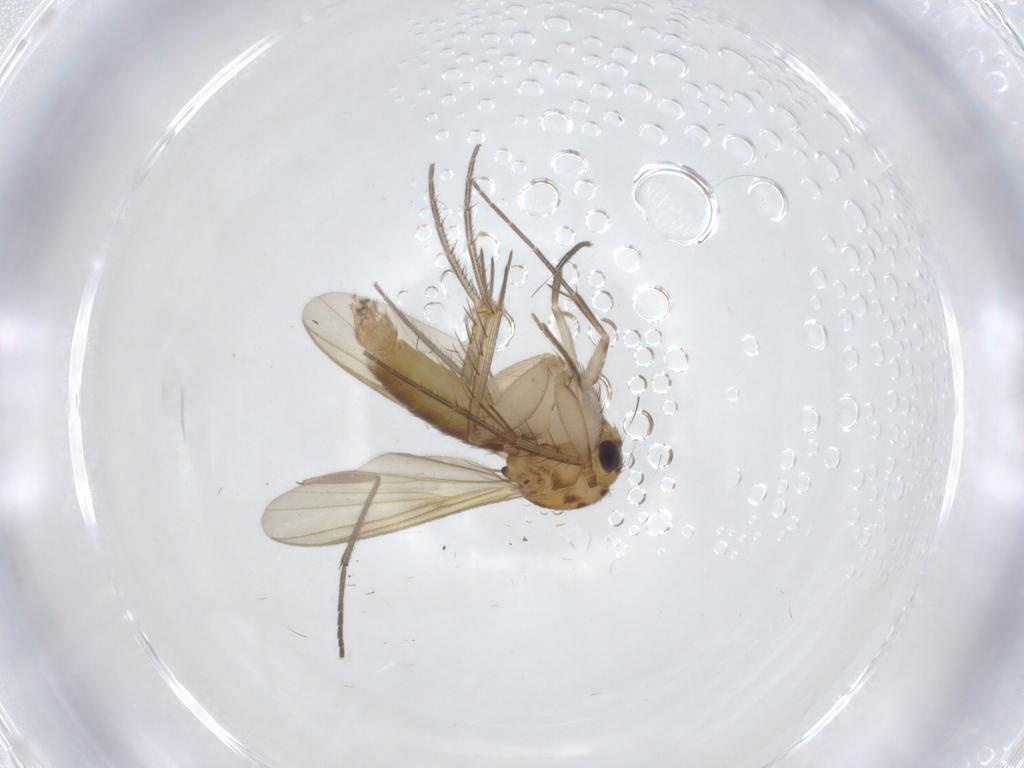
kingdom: Animalia
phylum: Arthropoda
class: Insecta
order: Diptera
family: Mycetophilidae
